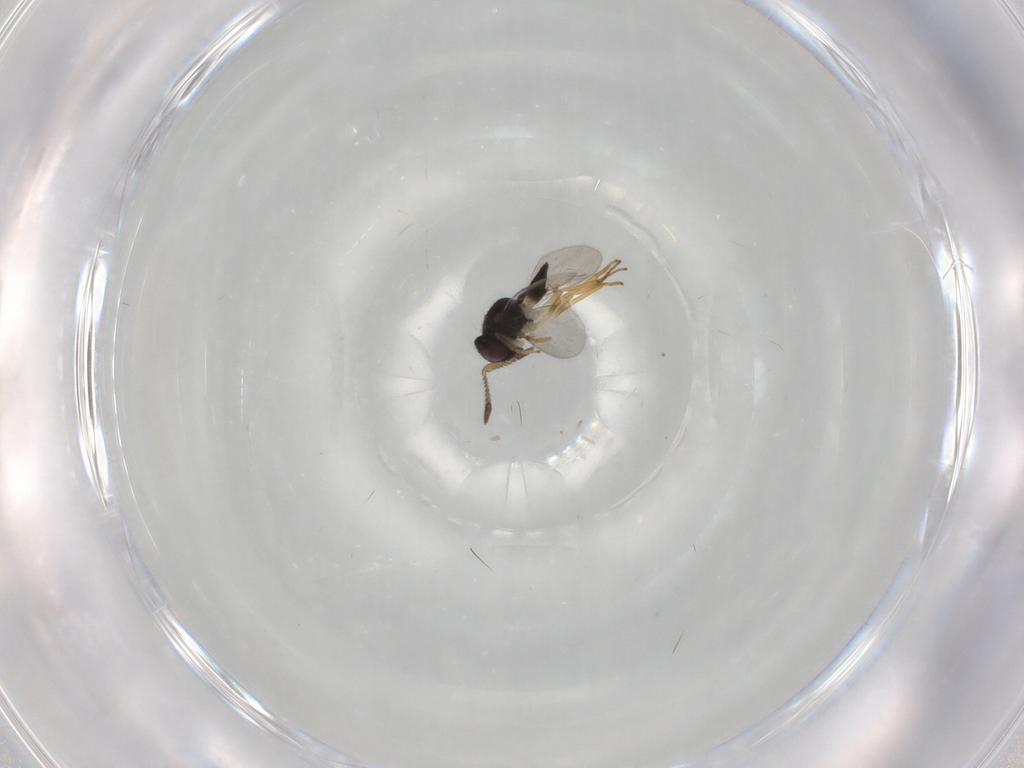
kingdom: Animalia
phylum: Arthropoda
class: Insecta
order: Hymenoptera
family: Encyrtidae
